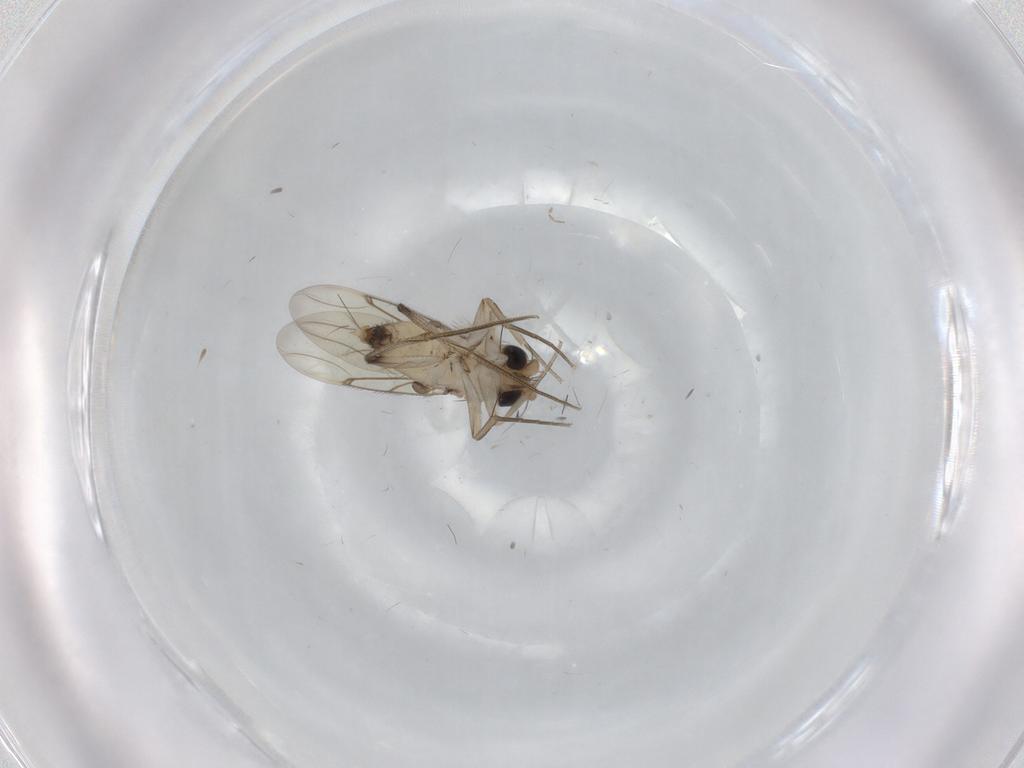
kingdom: Animalia
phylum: Arthropoda
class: Insecta
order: Diptera
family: Chironomidae
